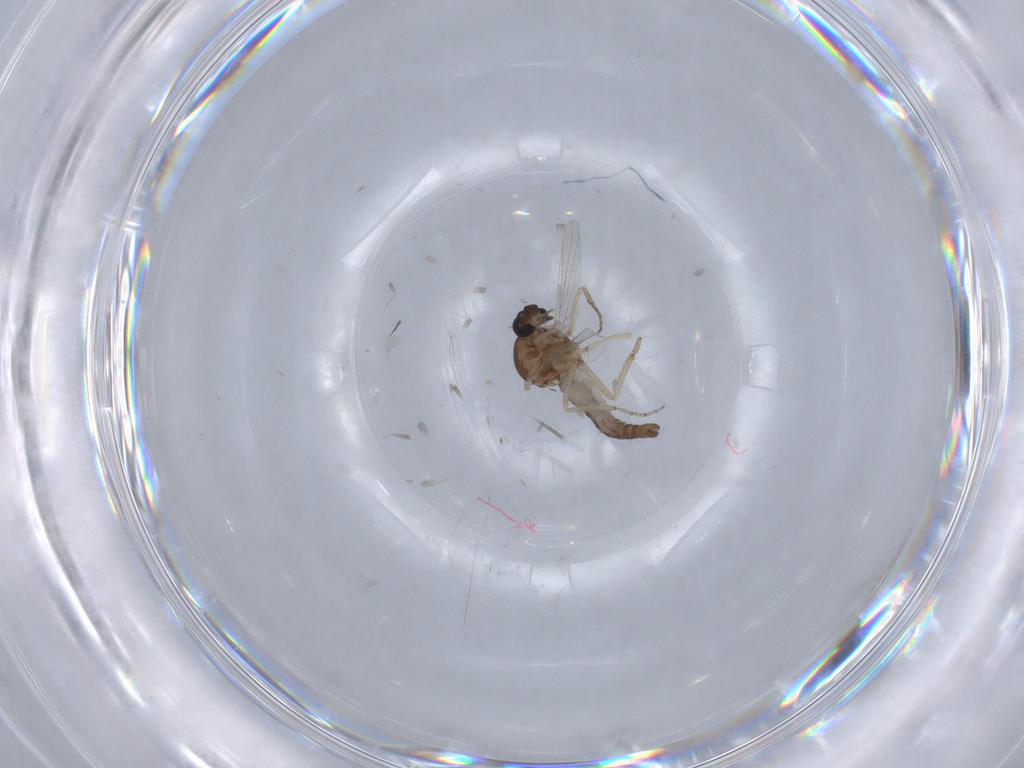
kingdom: Animalia
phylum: Arthropoda
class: Insecta
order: Diptera
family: Ceratopogonidae
